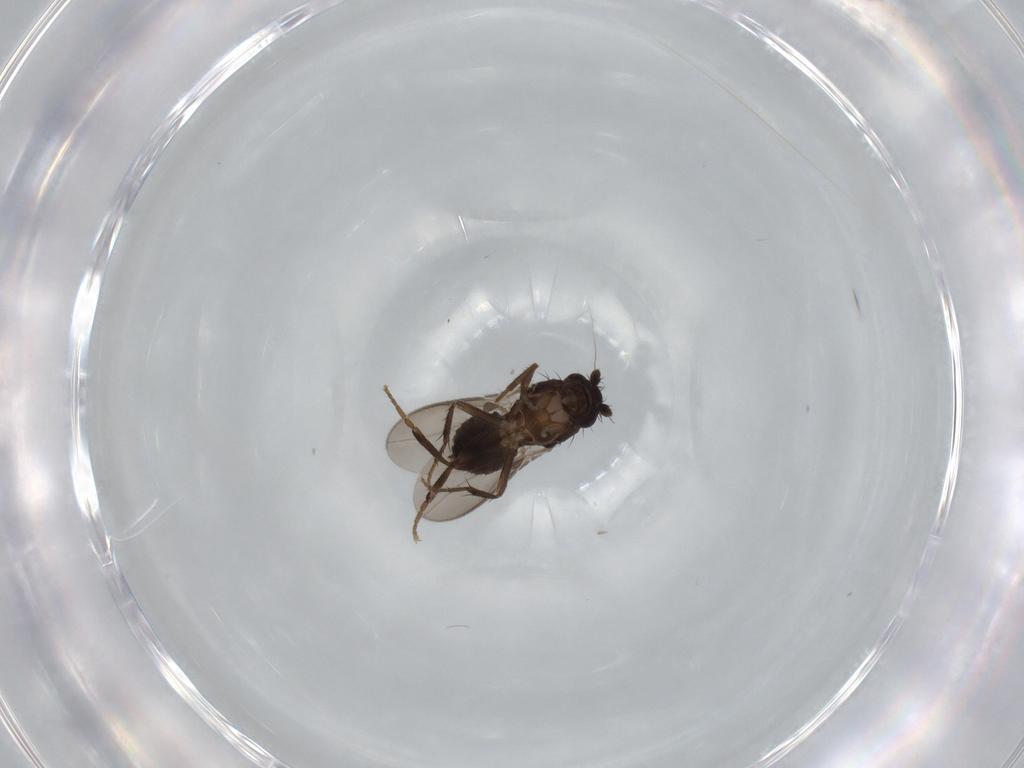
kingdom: Animalia
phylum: Arthropoda
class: Insecta
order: Diptera
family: Sphaeroceridae
